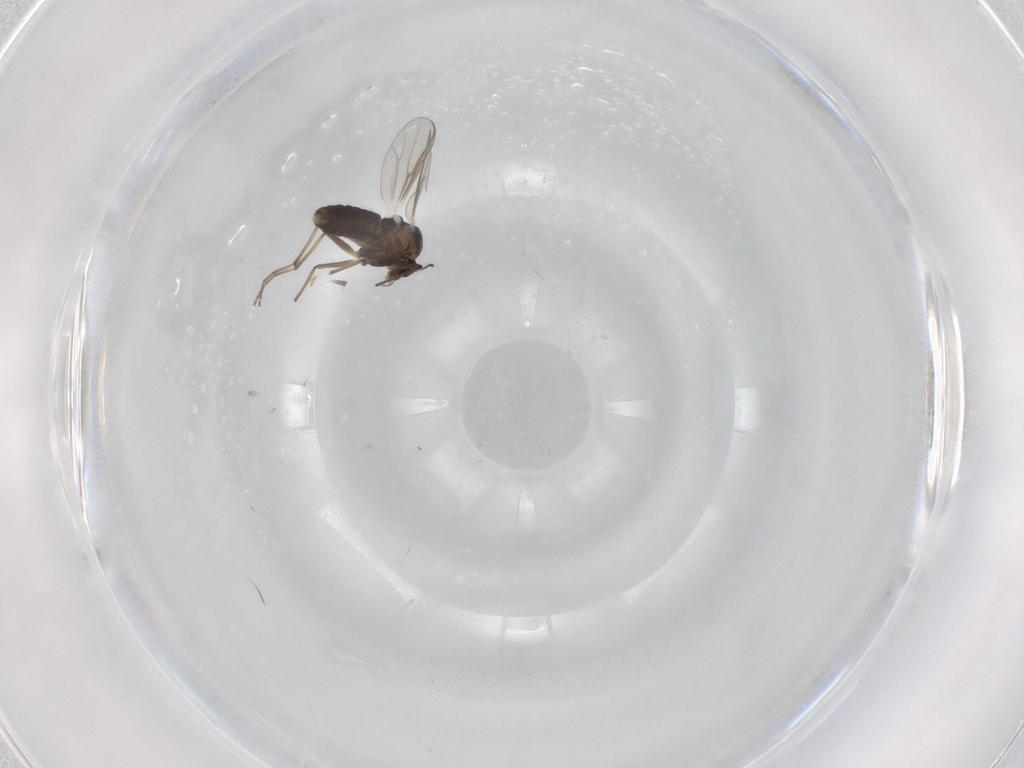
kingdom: Animalia
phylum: Arthropoda
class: Insecta
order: Diptera
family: Chironomidae
